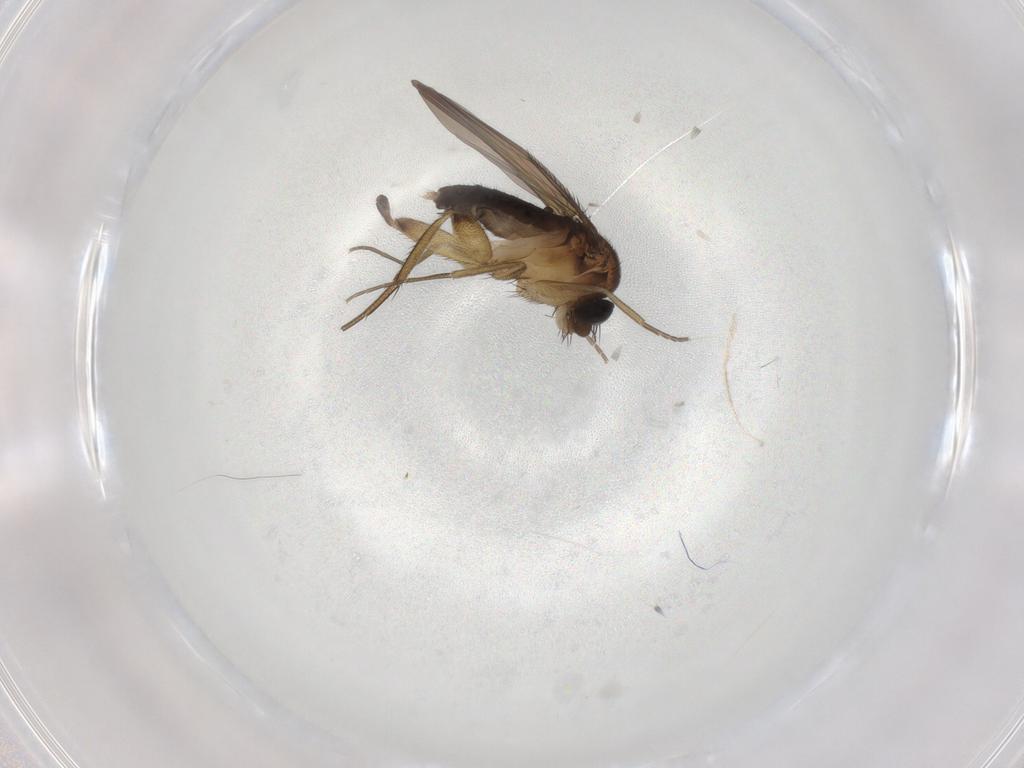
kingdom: Animalia
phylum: Arthropoda
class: Insecta
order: Diptera
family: Phoridae
